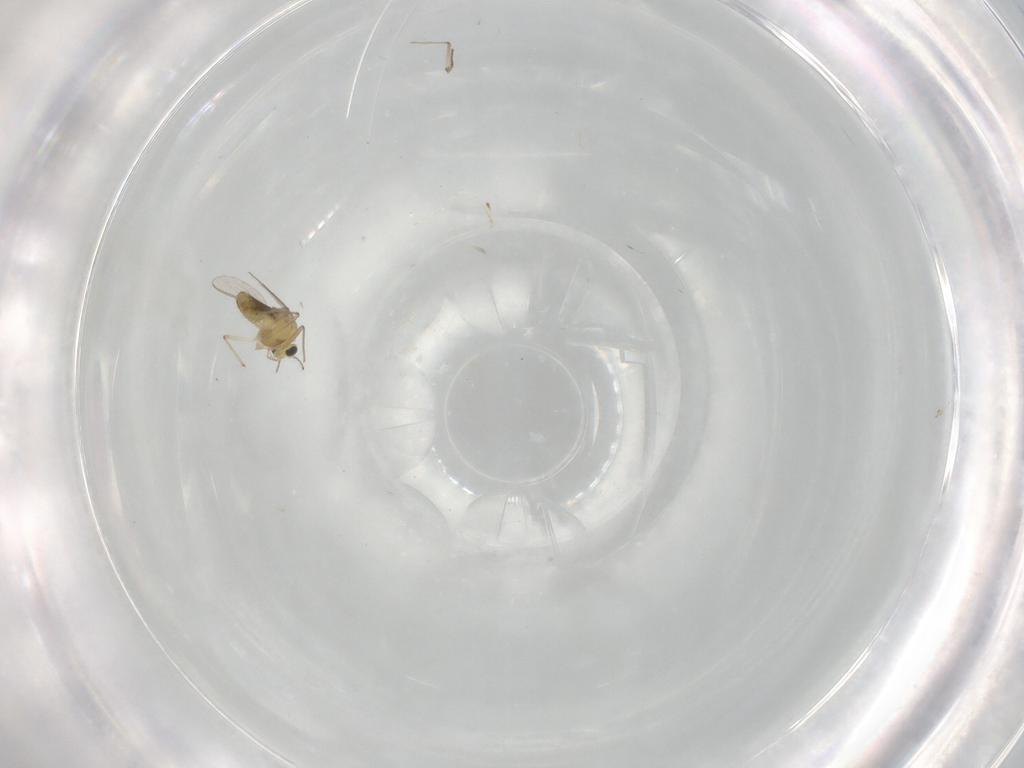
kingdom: Animalia
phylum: Arthropoda
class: Insecta
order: Diptera
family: Chironomidae
